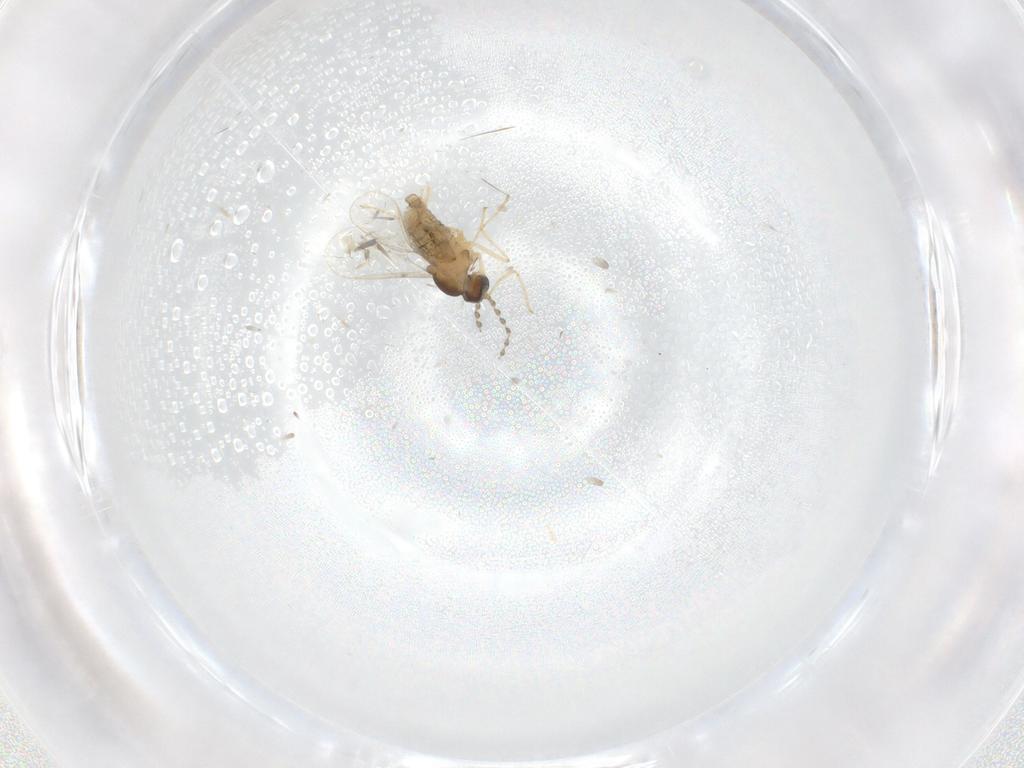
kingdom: Animalia
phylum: Arthropoda
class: Insecta
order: Diptera
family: Cecidomyiidae
